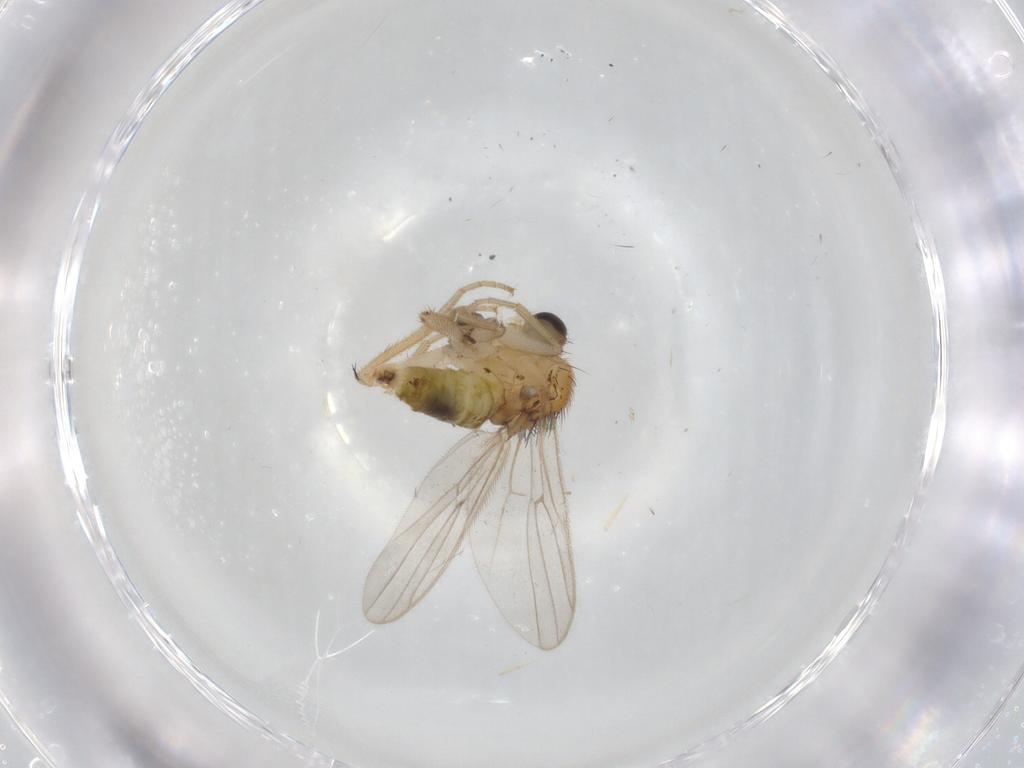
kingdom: Animalia
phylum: Arthropoda
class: Insecta
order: Diptera
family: Hybotidae
